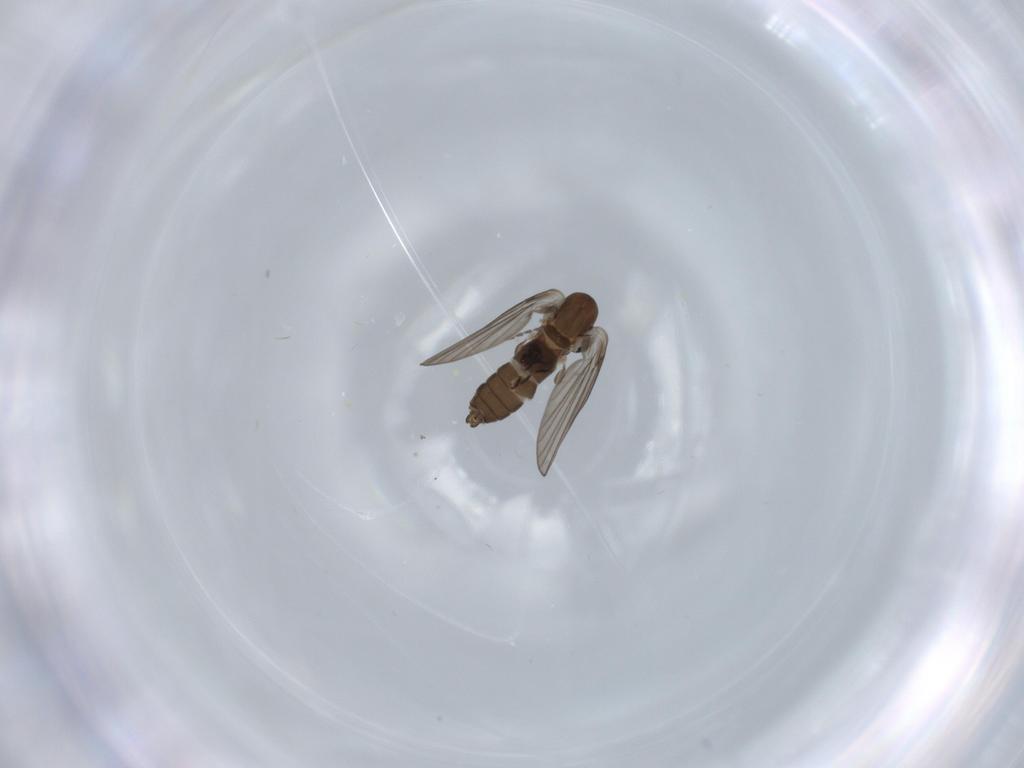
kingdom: Animalia
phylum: Arthropoda
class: Insecta
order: Diptera
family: Psychodidae
